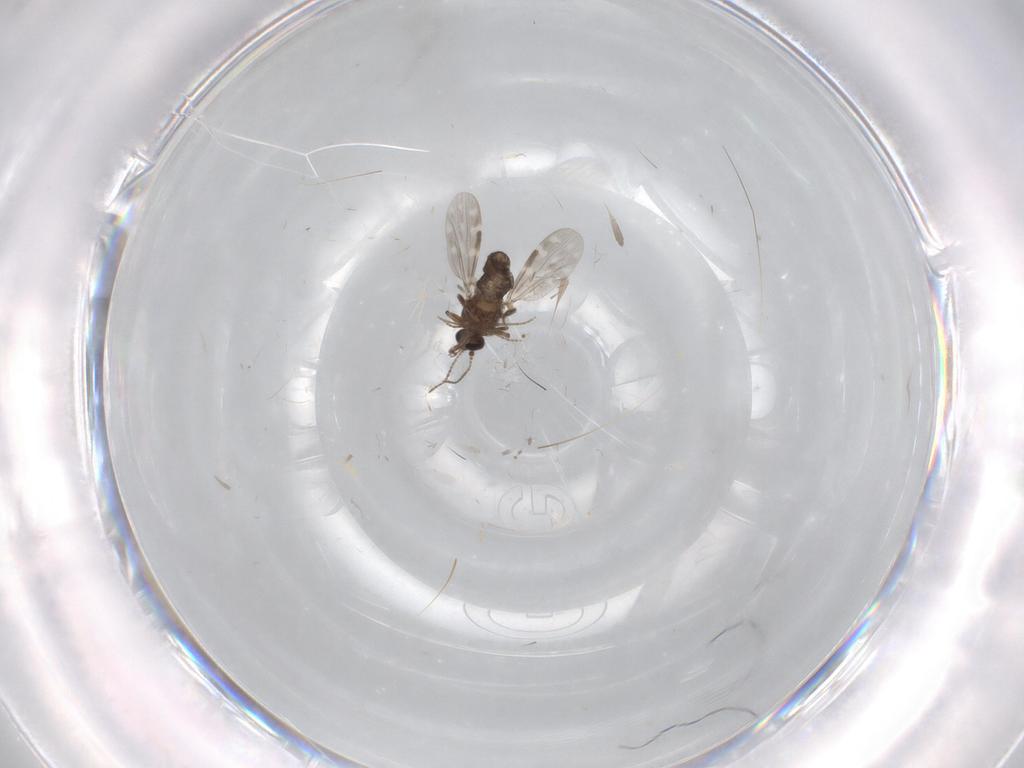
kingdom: Animalia
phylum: Arthropoda
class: Insecta
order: Diptera
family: Ceratopogonidae
